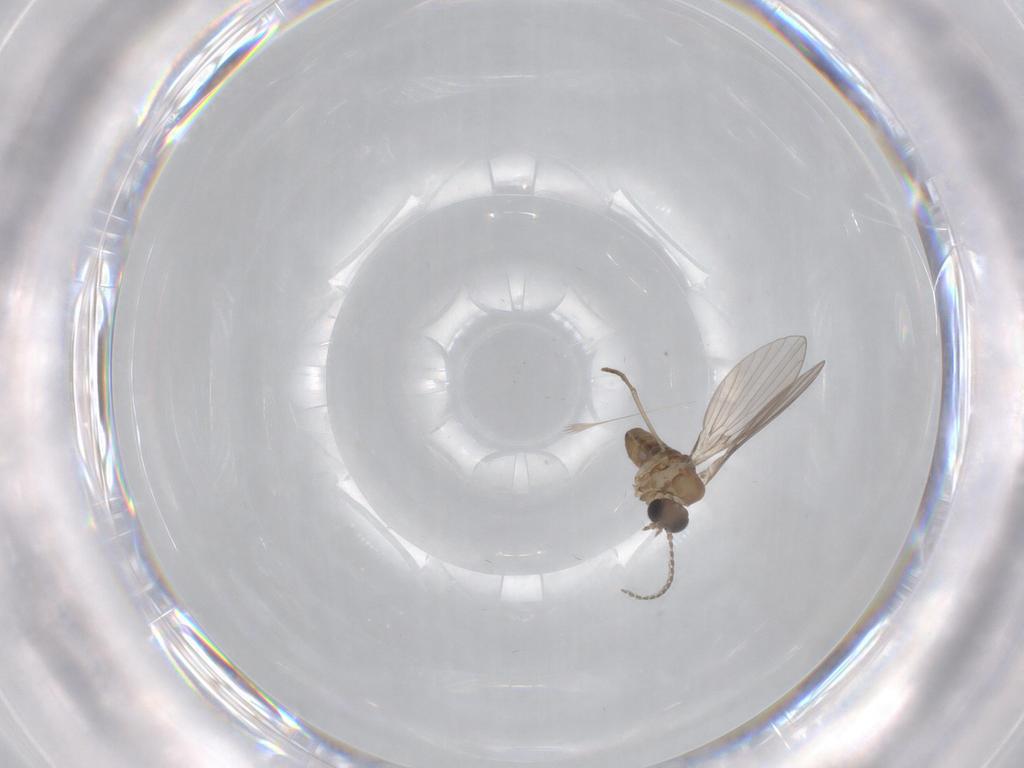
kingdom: Animalia
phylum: Arthropoda
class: Insecta
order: Diptera
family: Psychodidae
